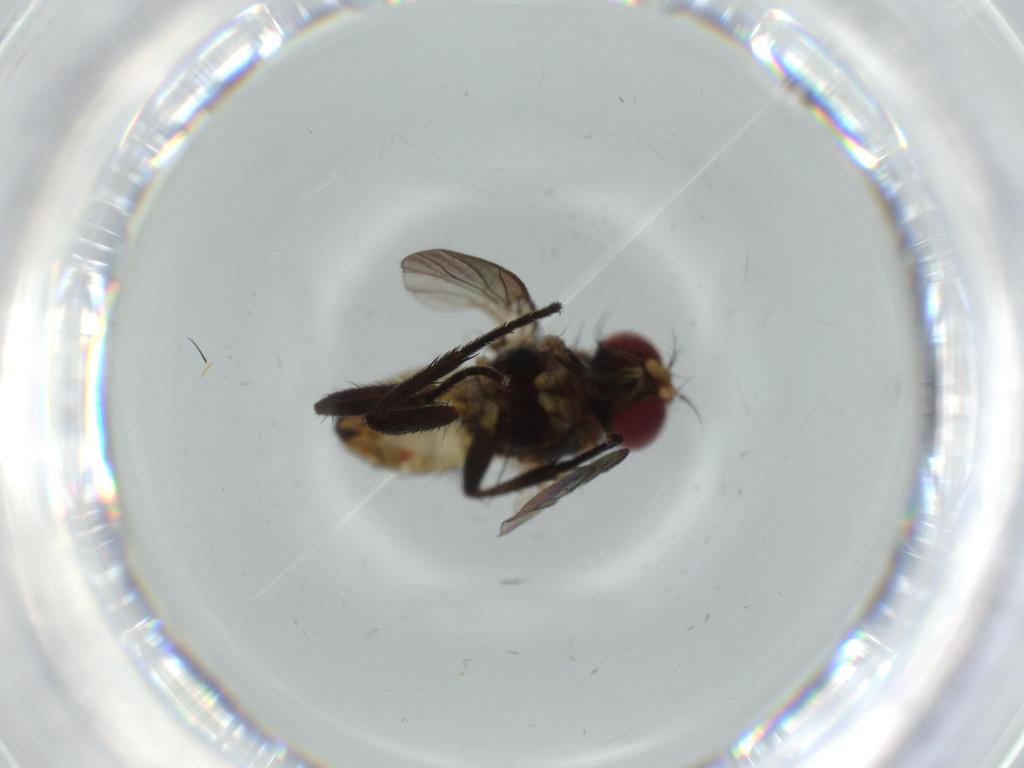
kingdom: Animalia
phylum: Arthropoda
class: Insecta
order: Diptera
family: Anthomyiidae
